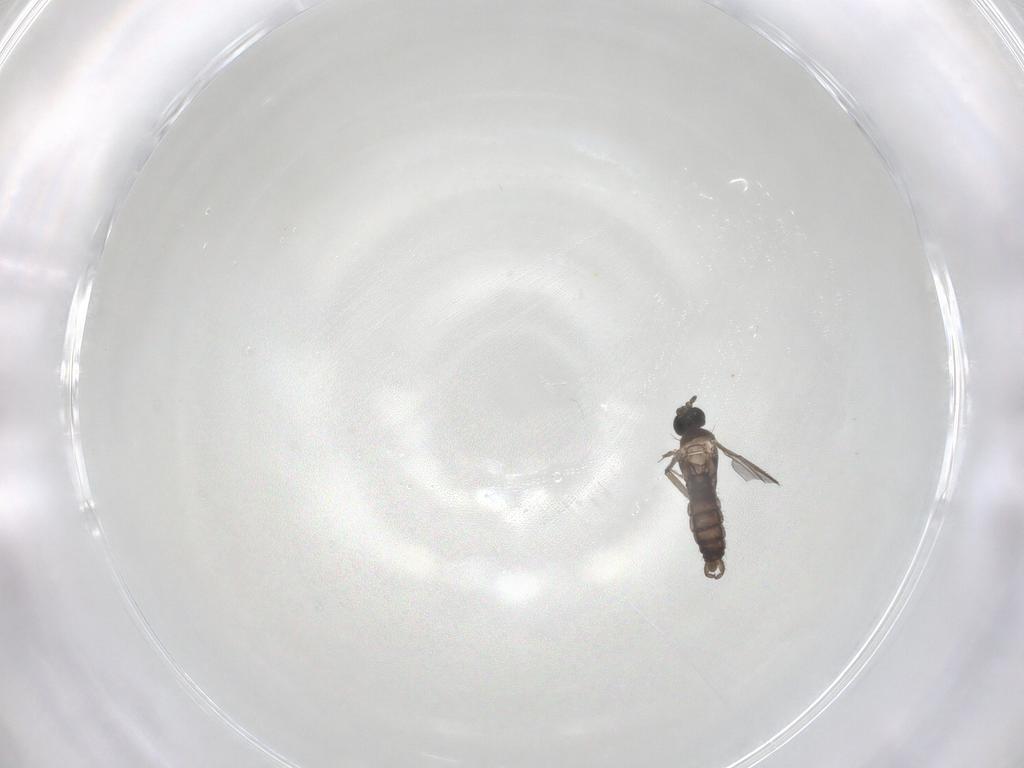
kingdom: Animalia
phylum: Arthropoda
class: Insecta
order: Diptera
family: Sciaridae
